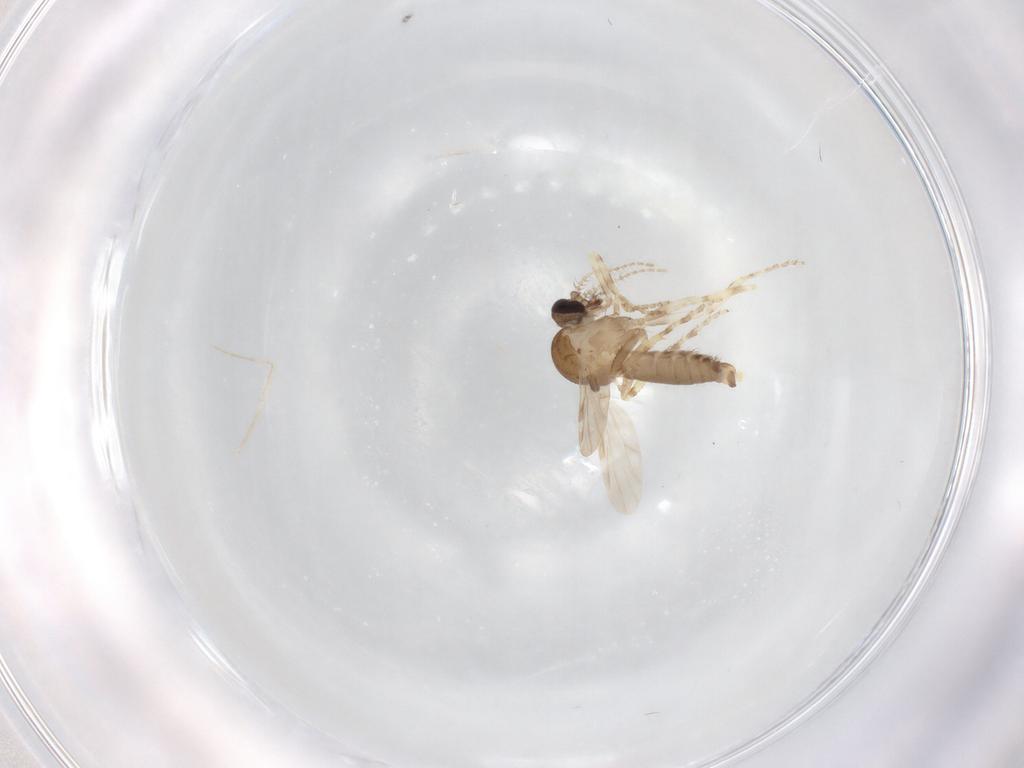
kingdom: Animalia
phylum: Arthropoda
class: Insecta
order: Diptera
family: Ceratopogonidae
